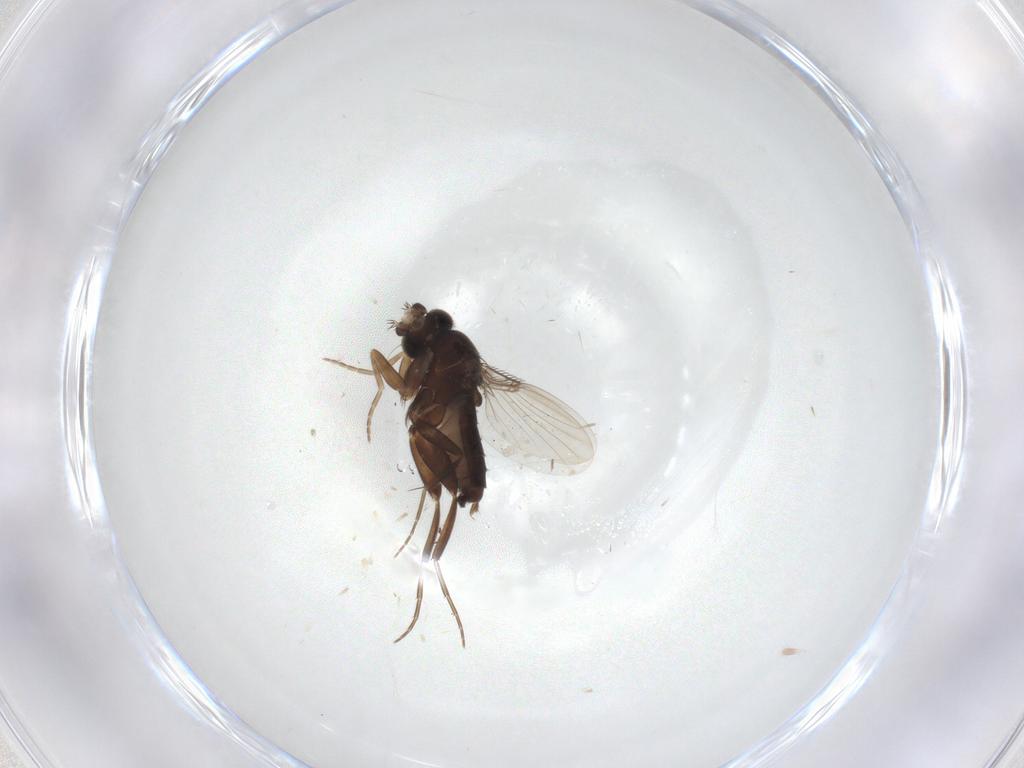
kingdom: Animalia
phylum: Arthropoda
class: Insecta
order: Diptera
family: Phoridae
